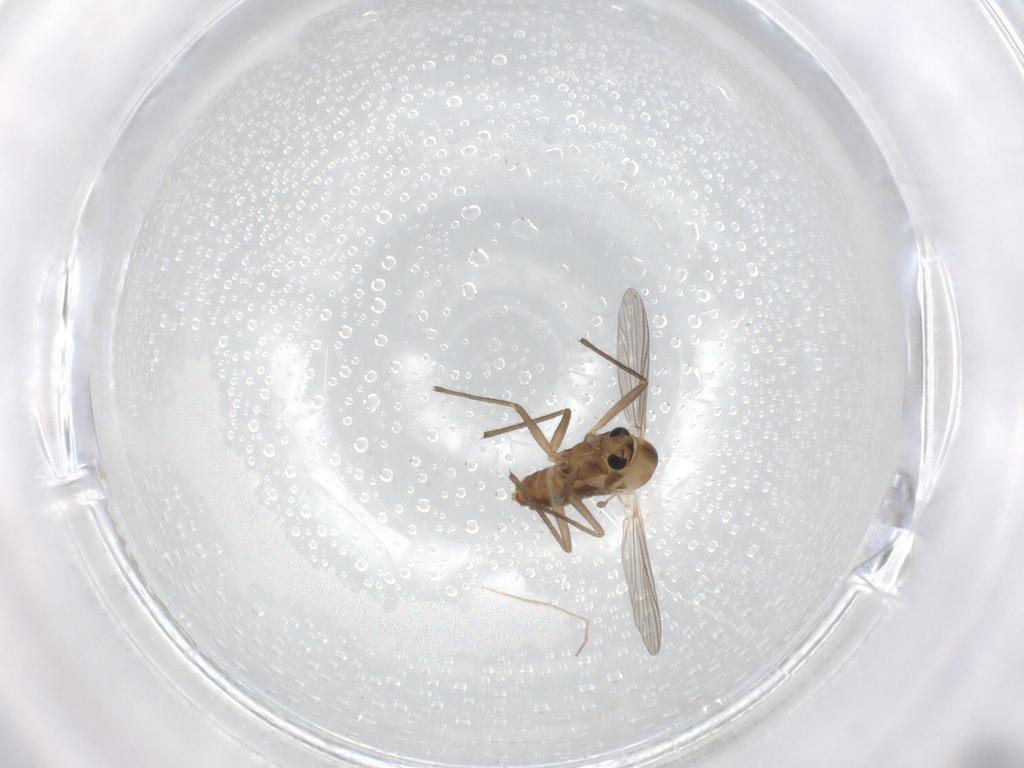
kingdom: Animalia
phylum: Arthropoda
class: Insecta
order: Diptera
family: Chironomidae
